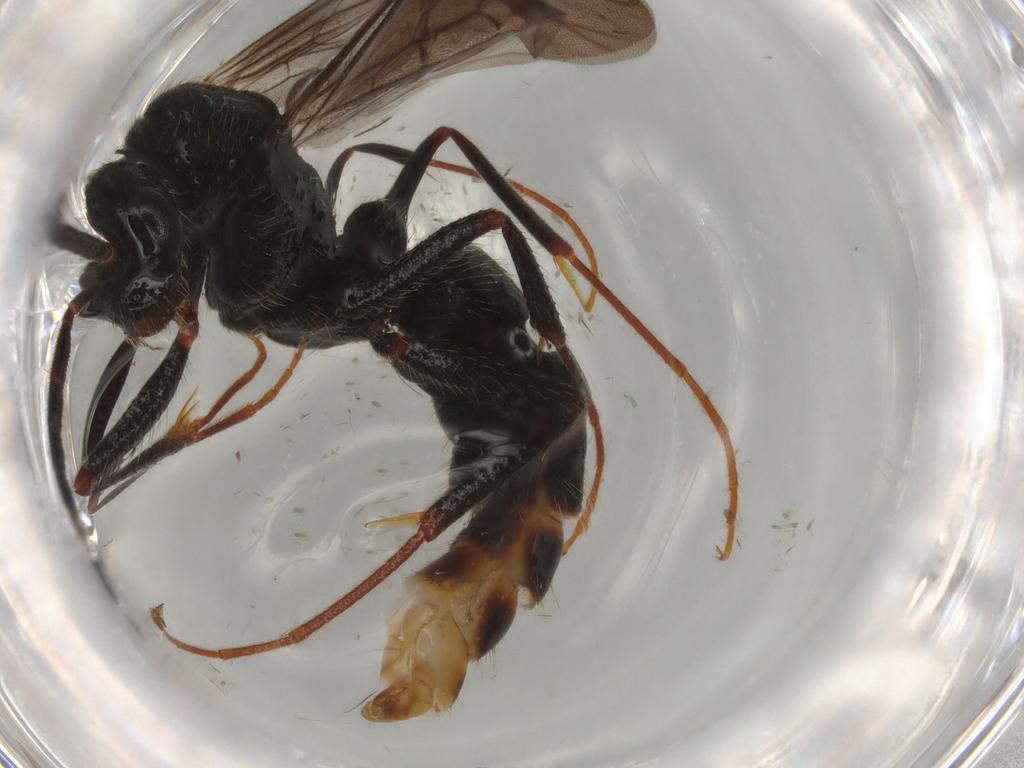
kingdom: Animalia
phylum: Arthropoda
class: Insecta
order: Hymenoptera
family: Formicidae
